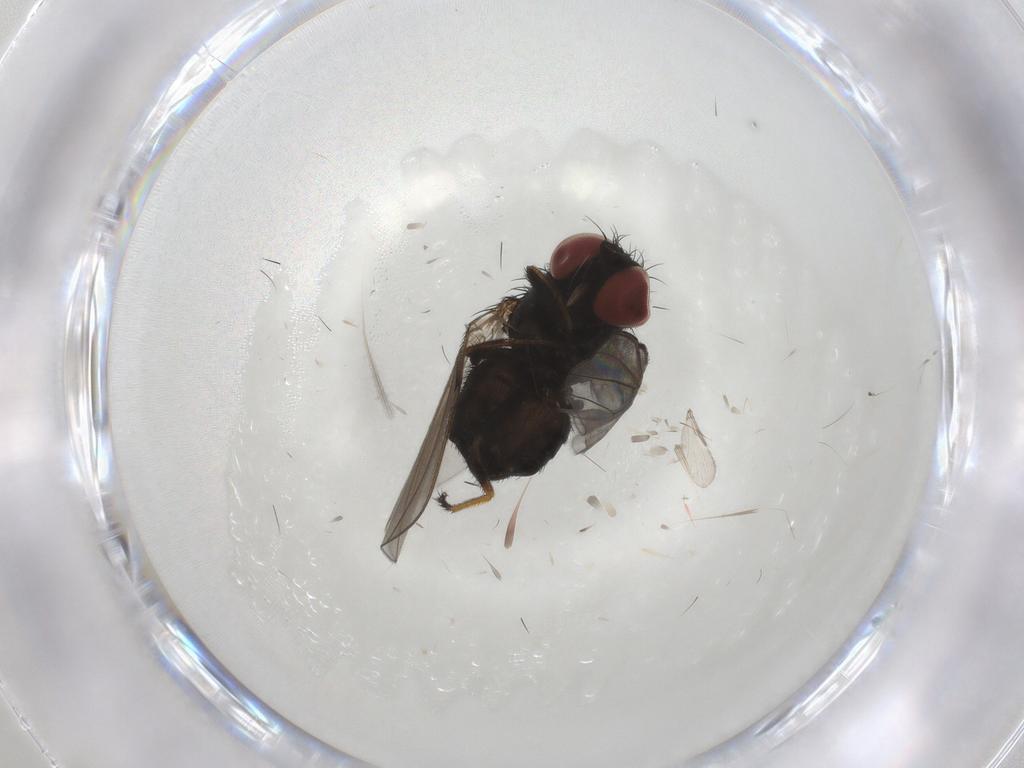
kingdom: Animalia
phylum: Arthropoda
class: Insecta
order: Diptera
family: Milichiidae
